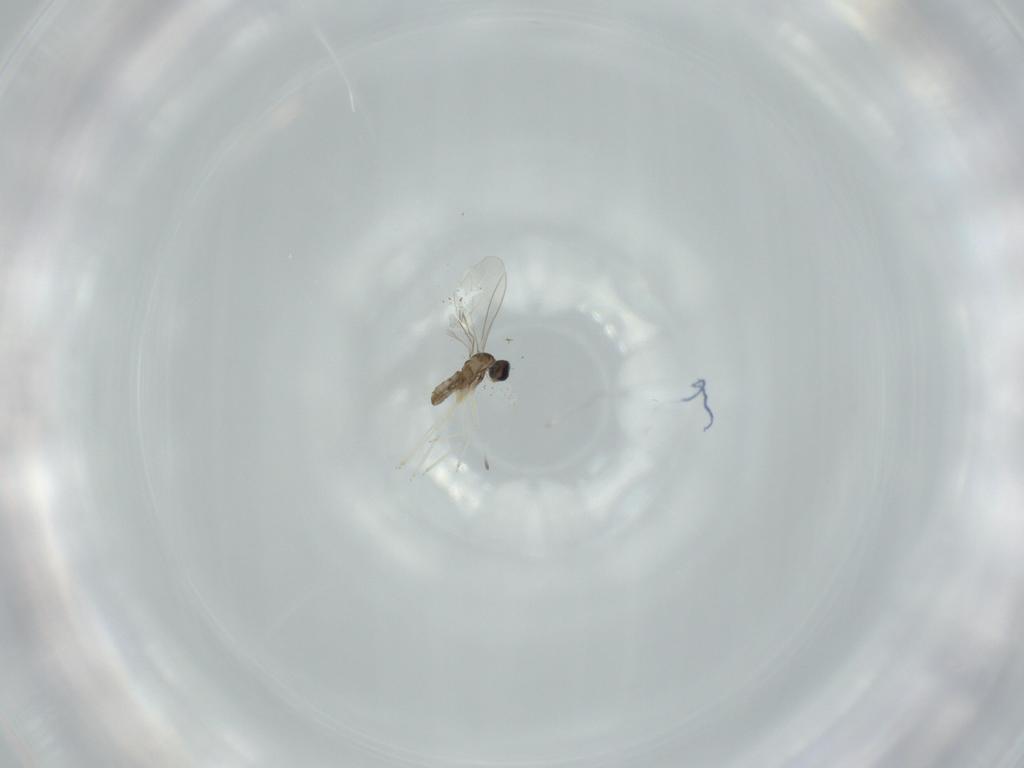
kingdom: Animalia
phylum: Arthropoda
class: Insecta
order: Diptera
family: Cecidomyiidae
